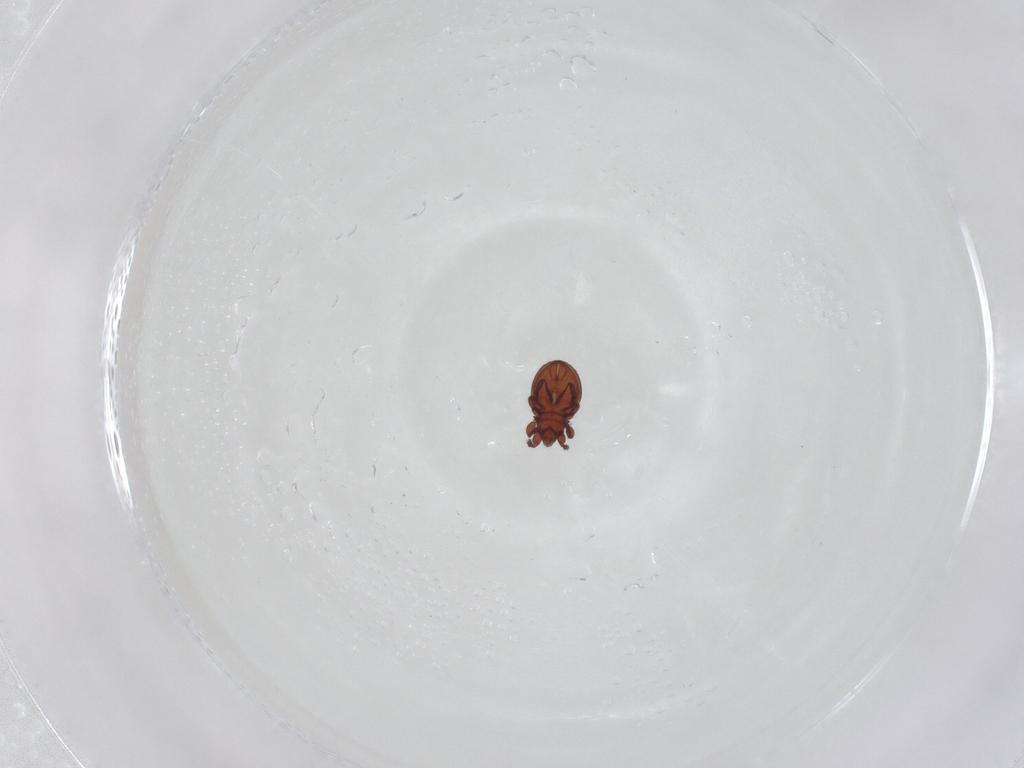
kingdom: Animalia
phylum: Arthropoda
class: Arachnida
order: Sarcoptiformes
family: Eremaeidae
